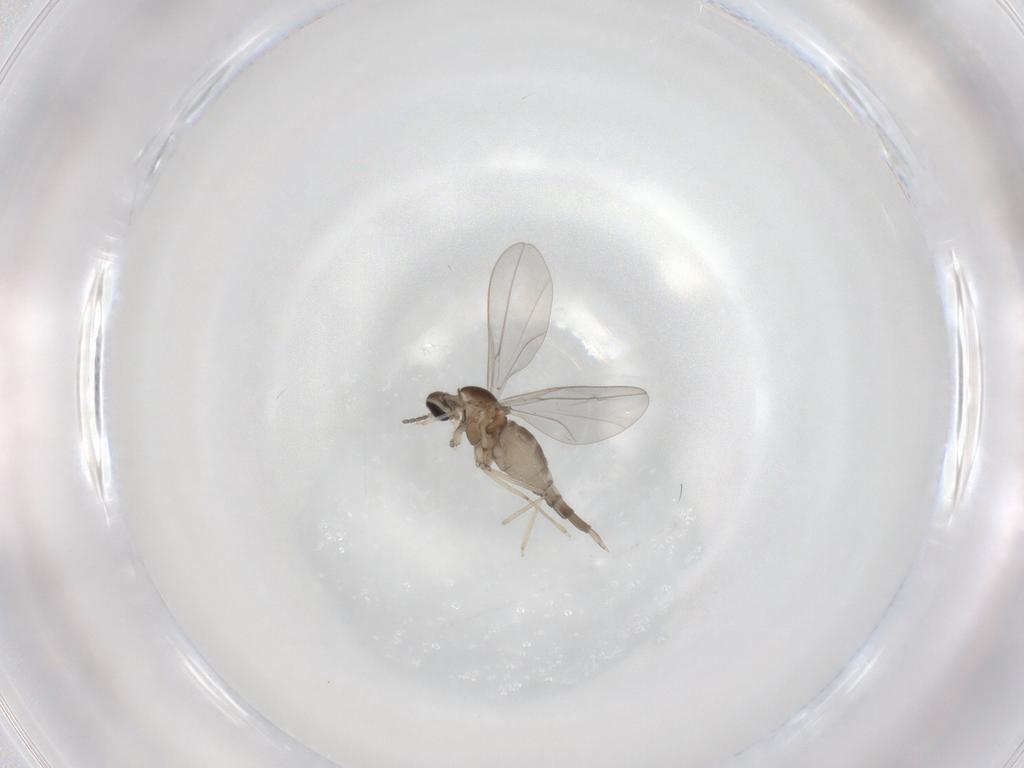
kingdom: Animalia
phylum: Arthropoda
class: Insecta
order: Diptera
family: Cecidomyiidae
